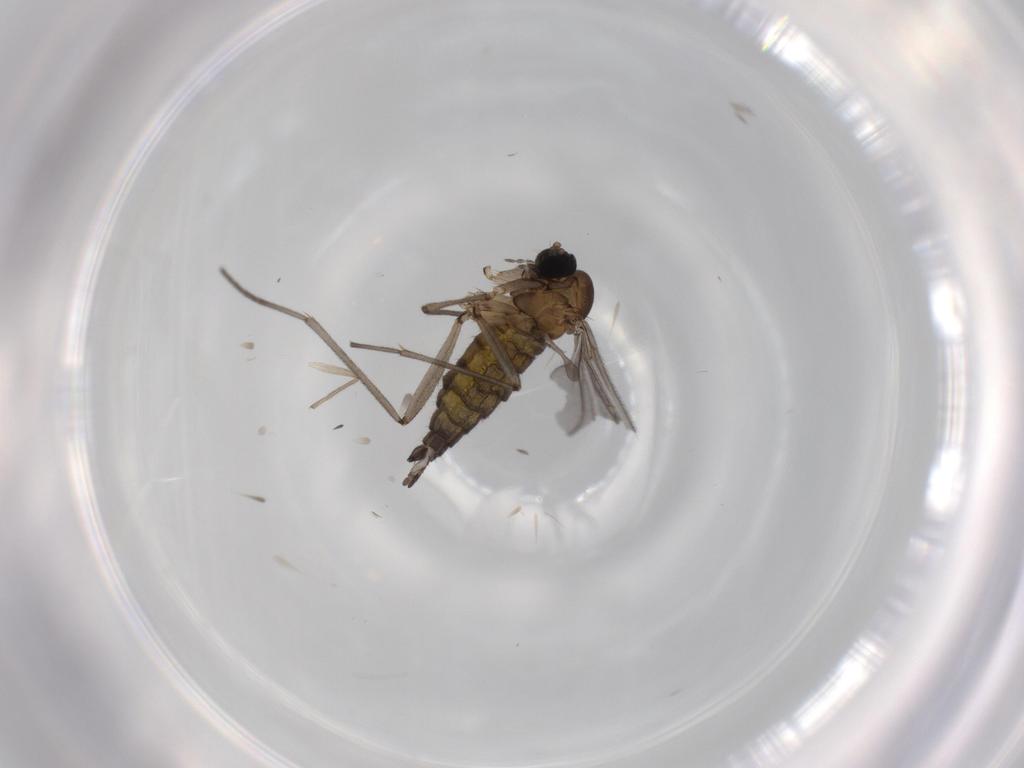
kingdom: Animalia
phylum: Arthropoda
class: Insecta
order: Diptera
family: Chironomidae
